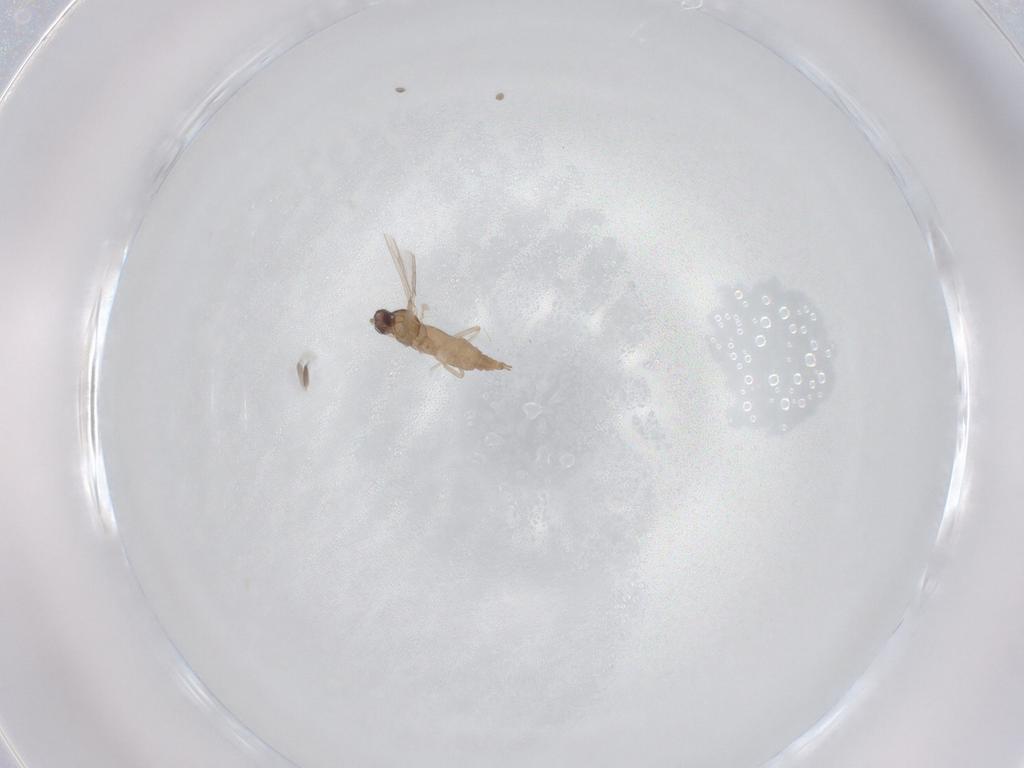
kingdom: Animalia
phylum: Arthropoda
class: Insecta
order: Diptera
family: Cecidomyiidae
